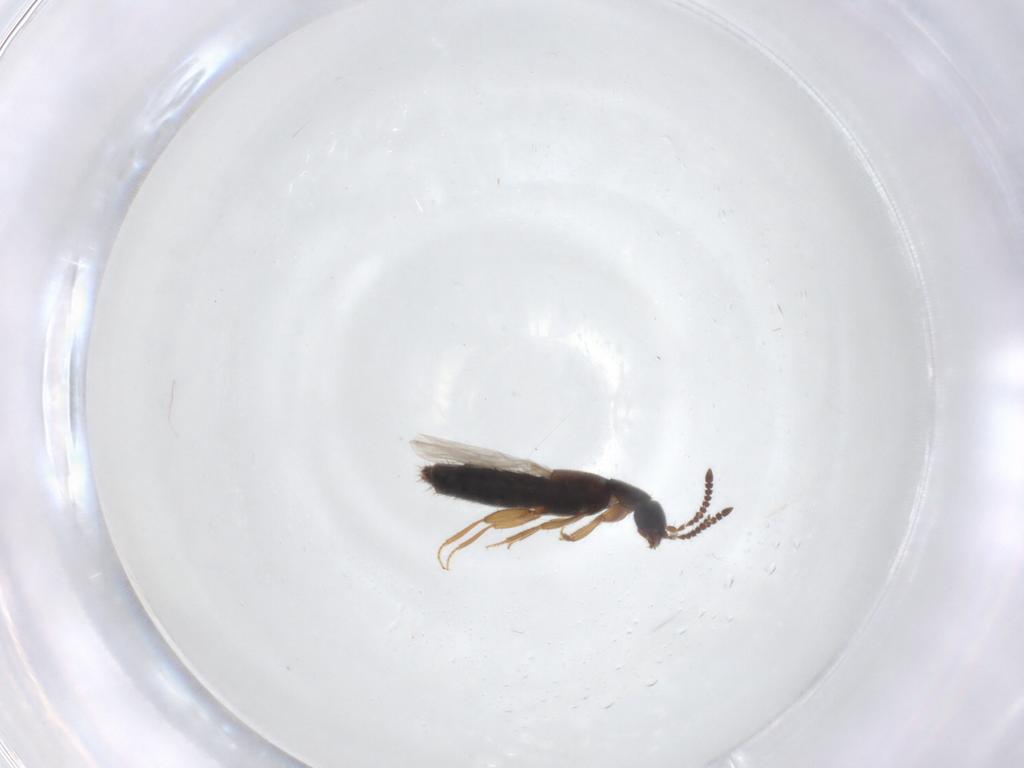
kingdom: Animalia
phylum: Arthropoda
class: Insecta
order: Coleoptera
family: Staphylinidae
